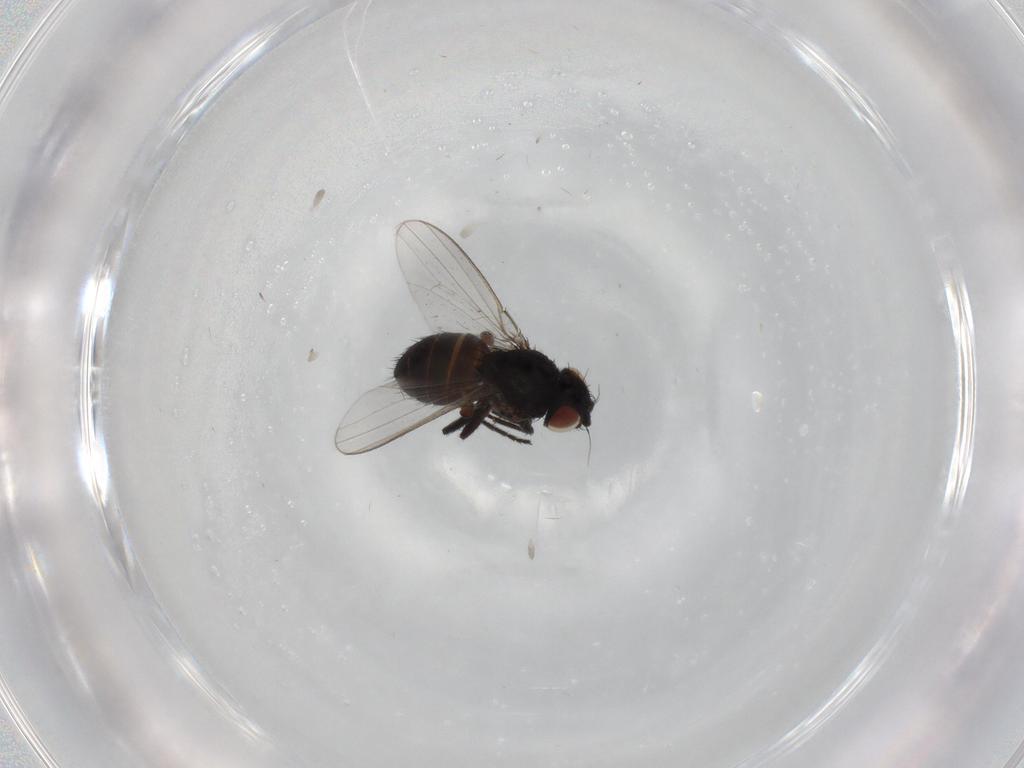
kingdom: Animalia
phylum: Arthropoda
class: Insecta
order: Diptera
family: Milichiidae
